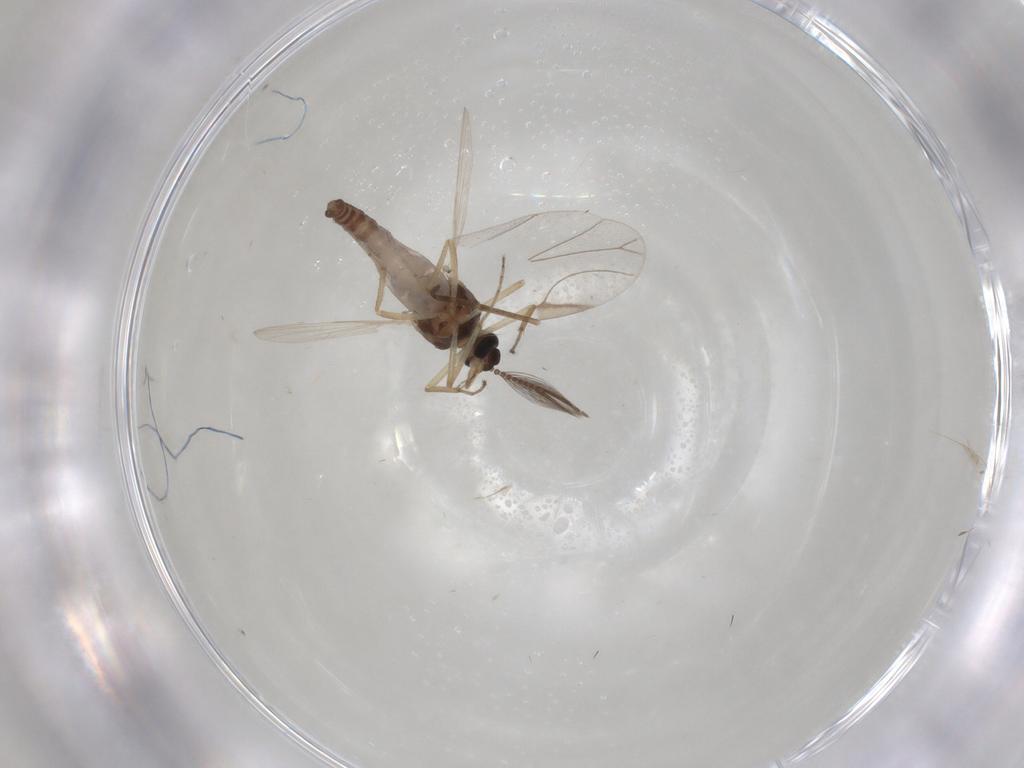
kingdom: Animalia
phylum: Arthropoda
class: Insecta
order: Diptera
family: Ceratopogonidae
